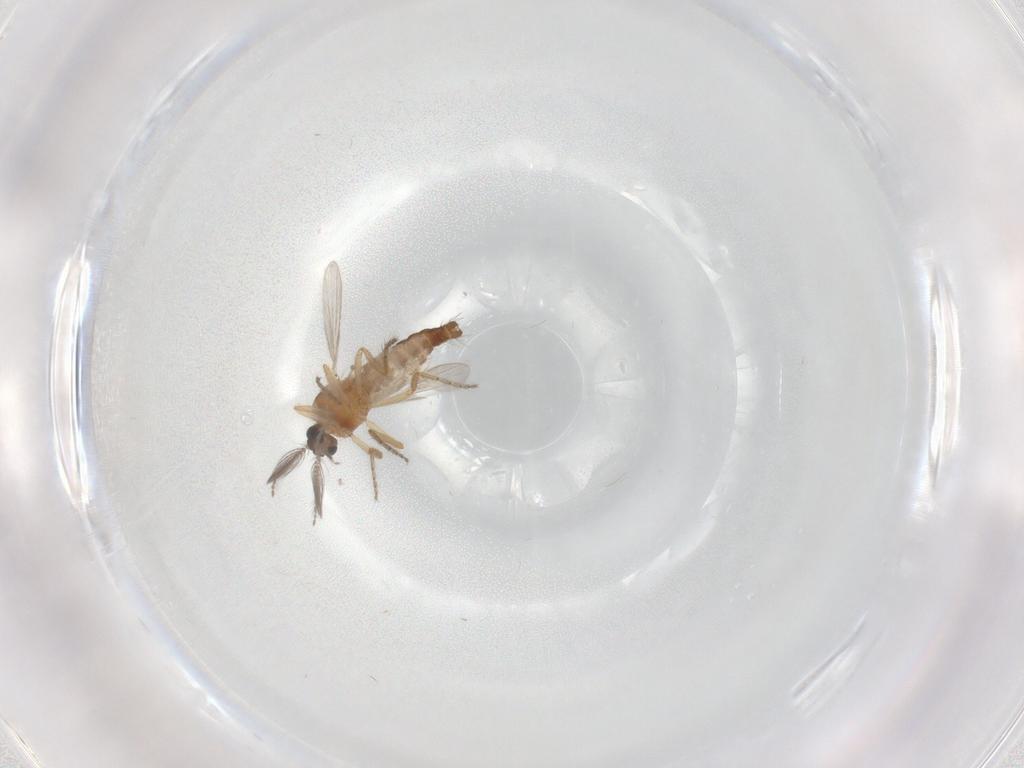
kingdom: Animalia
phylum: Arthropoda
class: Insecta
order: Diptera
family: Ceratopogonidae
